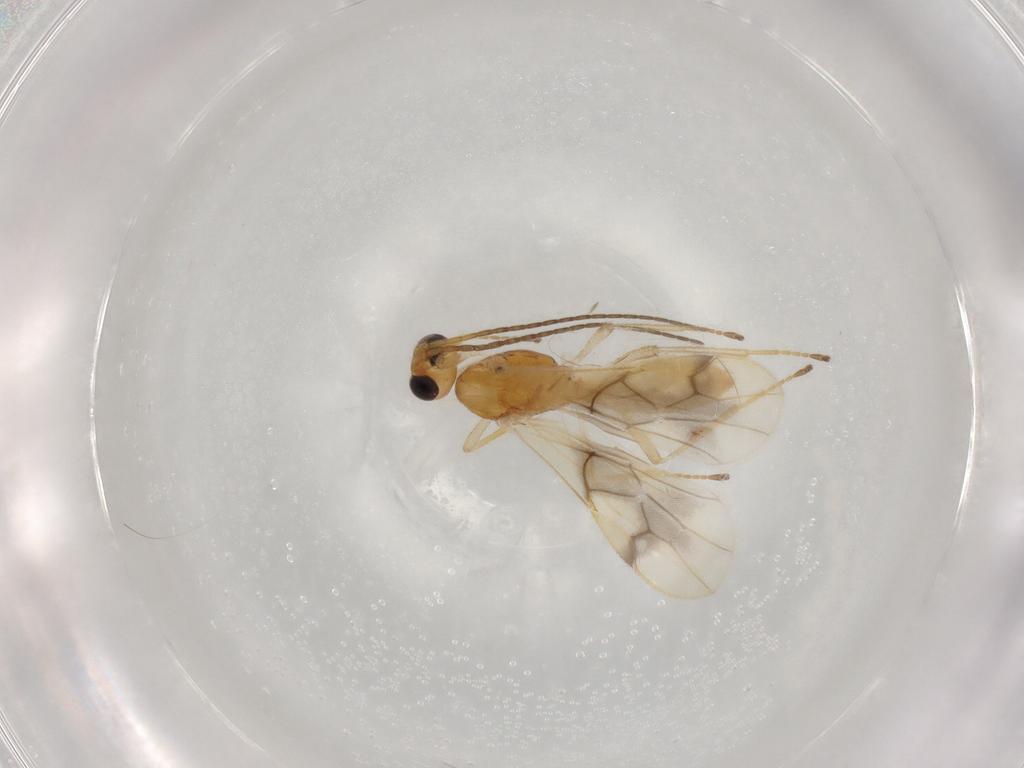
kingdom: Animalia
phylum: Arthropoda
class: Insecta
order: Hymenoptera
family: Braconidae
